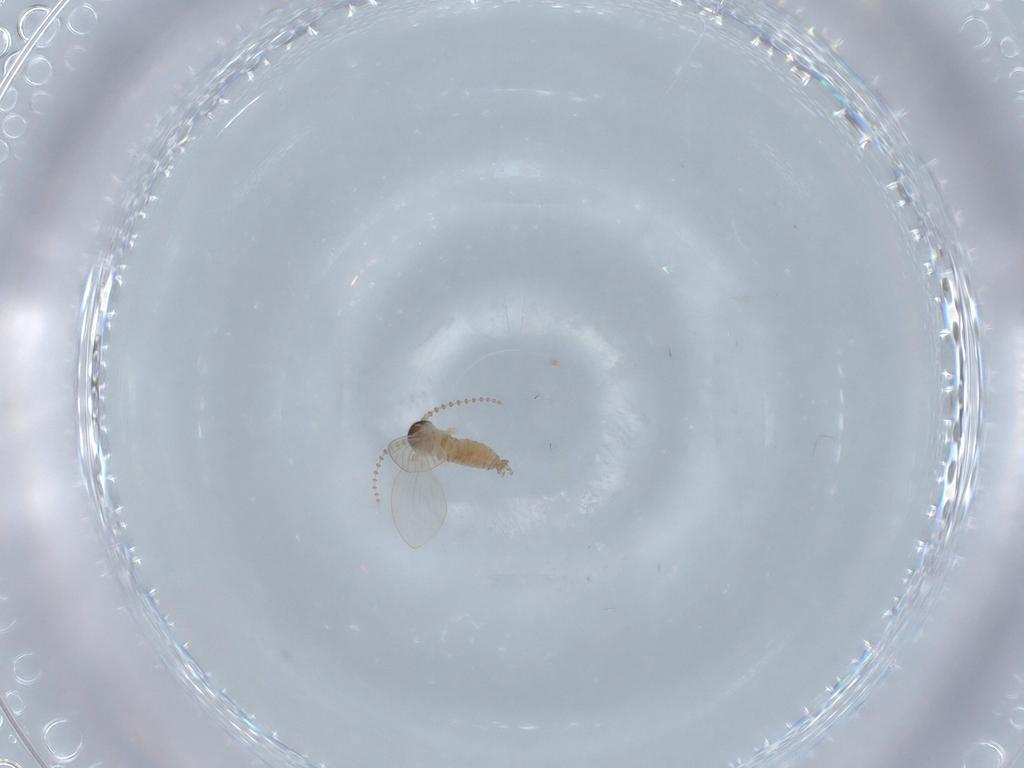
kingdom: Animalia
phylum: Arthropoda
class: Insecta
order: Diptera
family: Psychodidae
